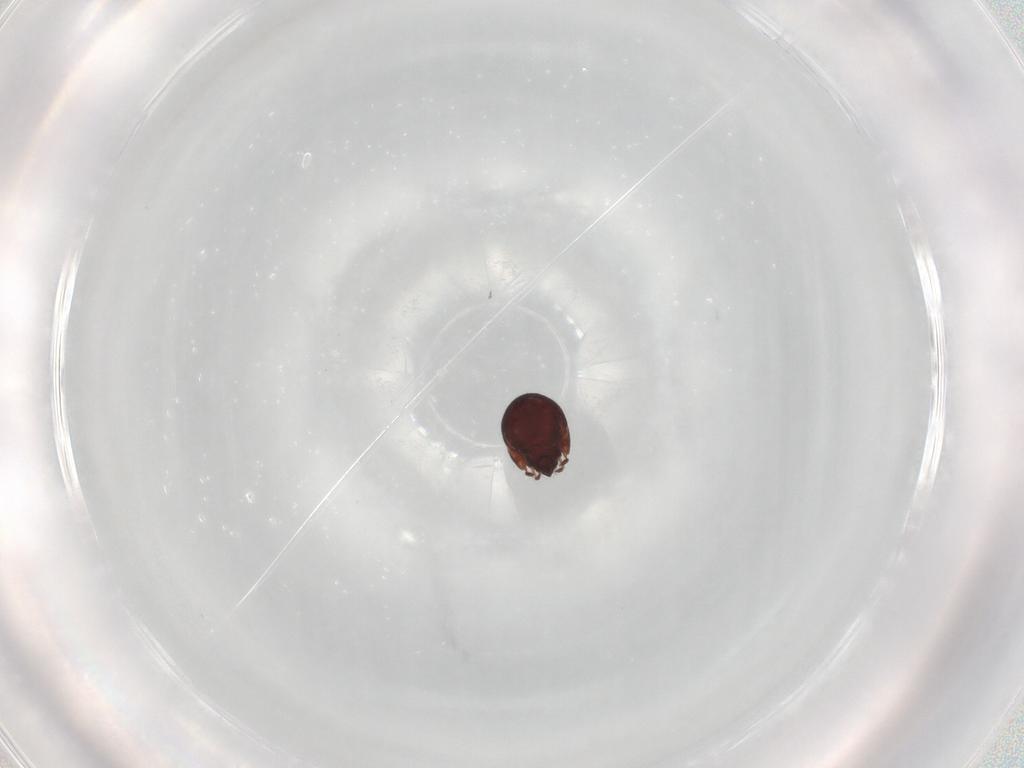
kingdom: Animalia
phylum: Arthropoda
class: Arachnida
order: Sarcoptiformes
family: Humerobatidae
